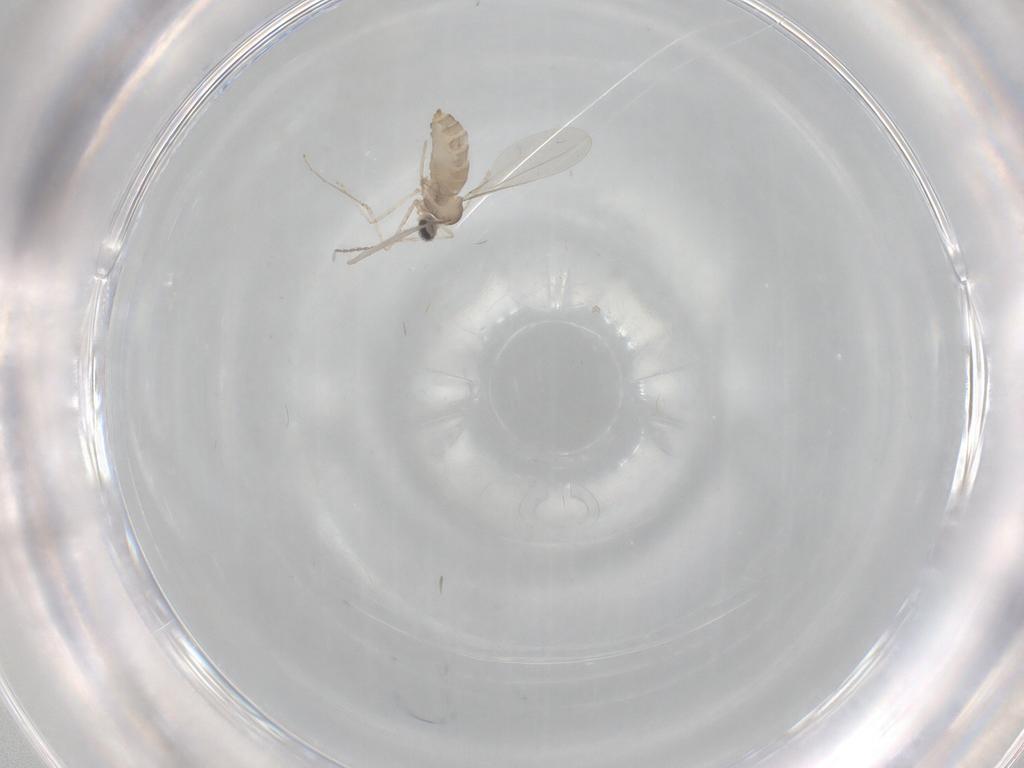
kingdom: Animalia
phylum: Arthropoda
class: Insecta
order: Diptera
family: Cecidomyiidae
